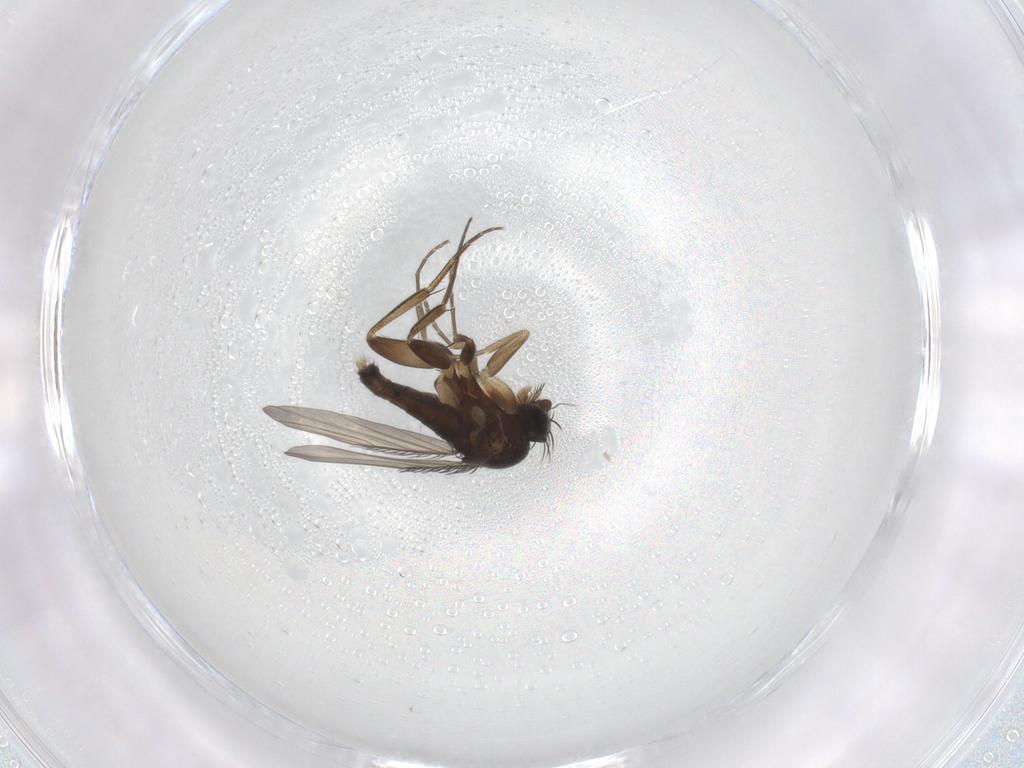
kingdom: Animalia
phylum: Arthropoda
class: Insecta
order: Diptera
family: Phoridae
